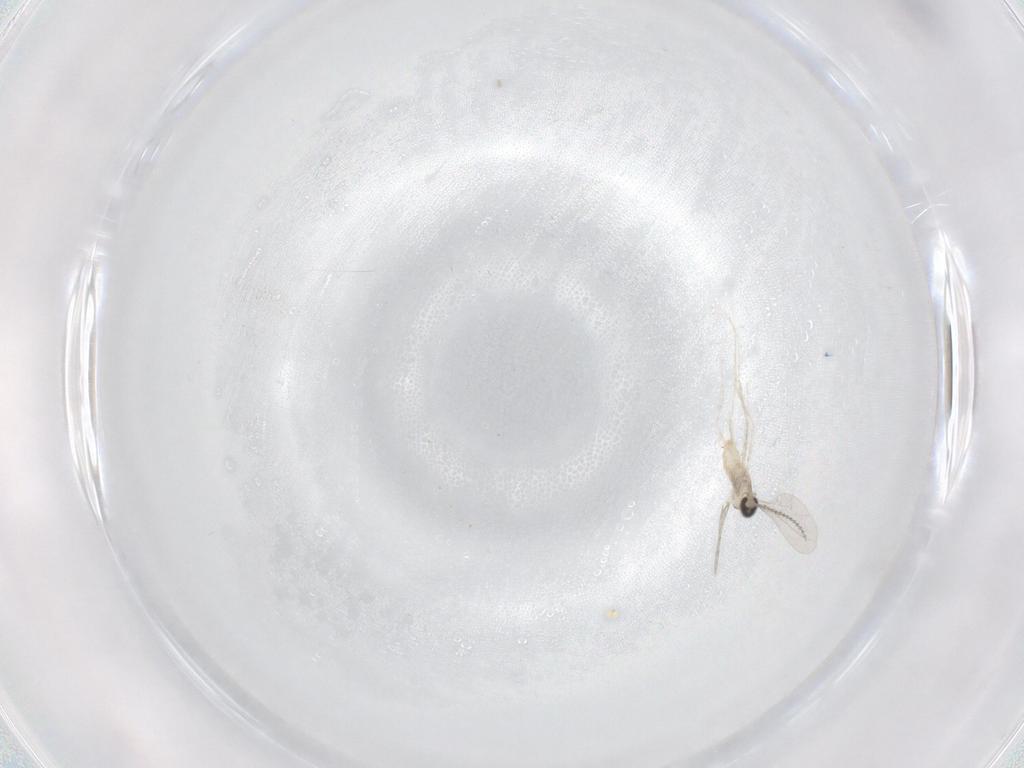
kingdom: Animalia
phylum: Arthropoda
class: Insecta
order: Diptera
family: Cecidomyiidae
